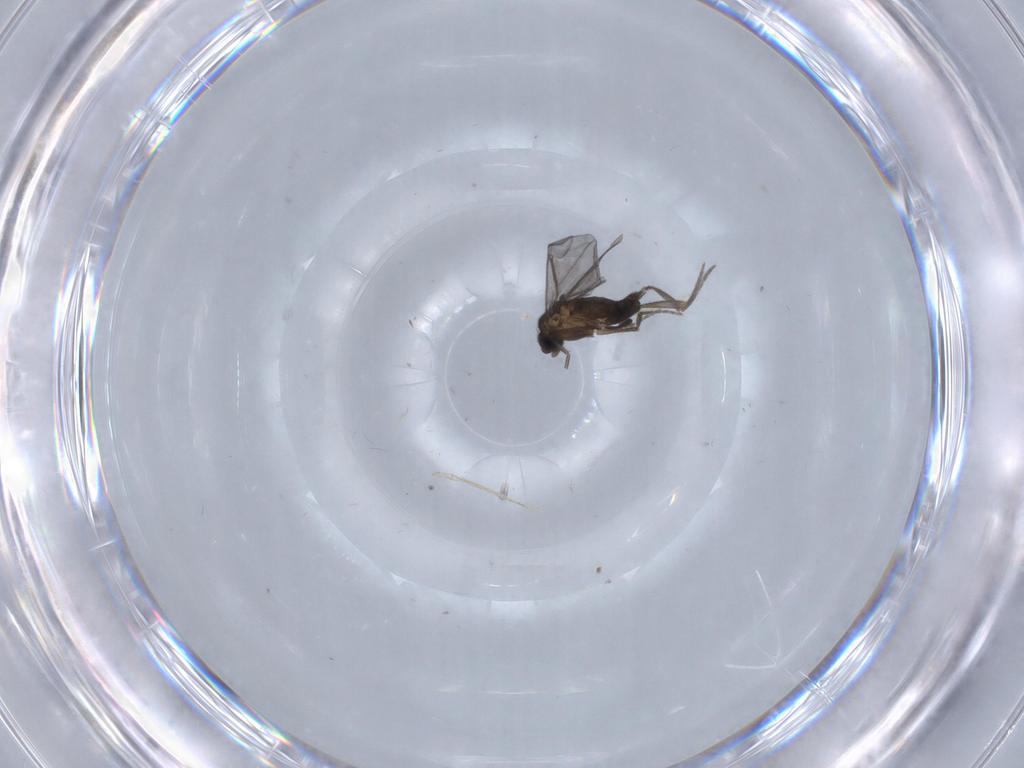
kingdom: Animalia
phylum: Arthropoda
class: Insecta
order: Diptera
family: Chironomidae
